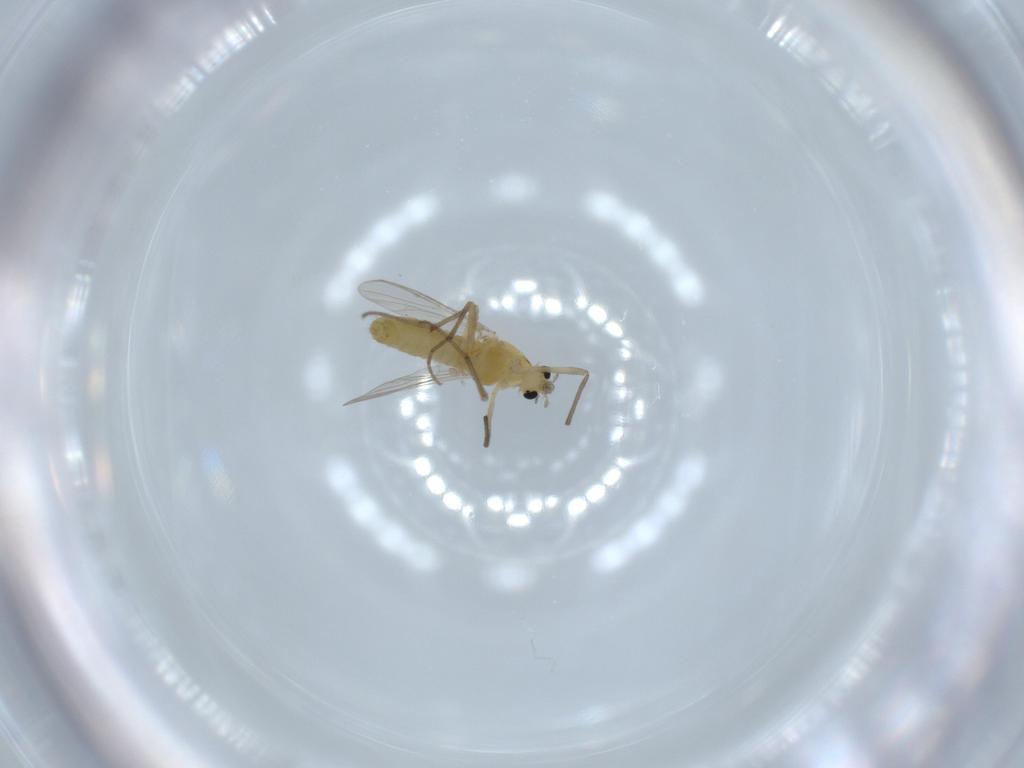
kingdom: Animalia
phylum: Arthropoda
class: Insecta
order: Diptera
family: Chironomidae
